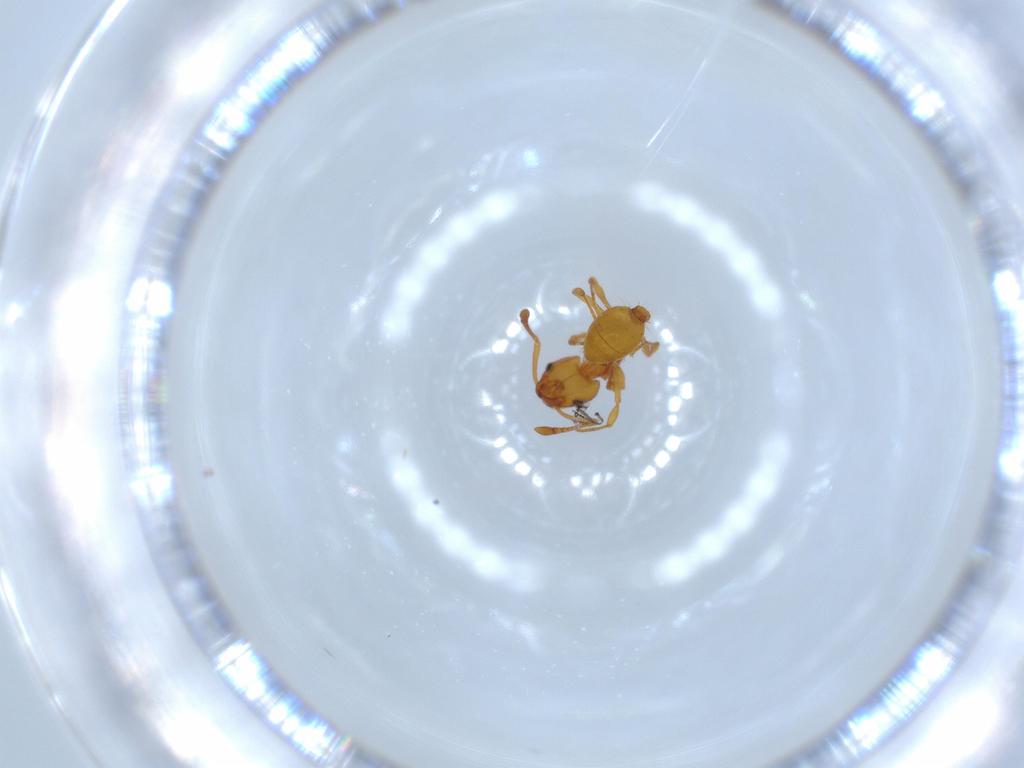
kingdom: Animalia
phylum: Arthropoda
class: Insecta
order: Hymenoptera
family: Formicidae
